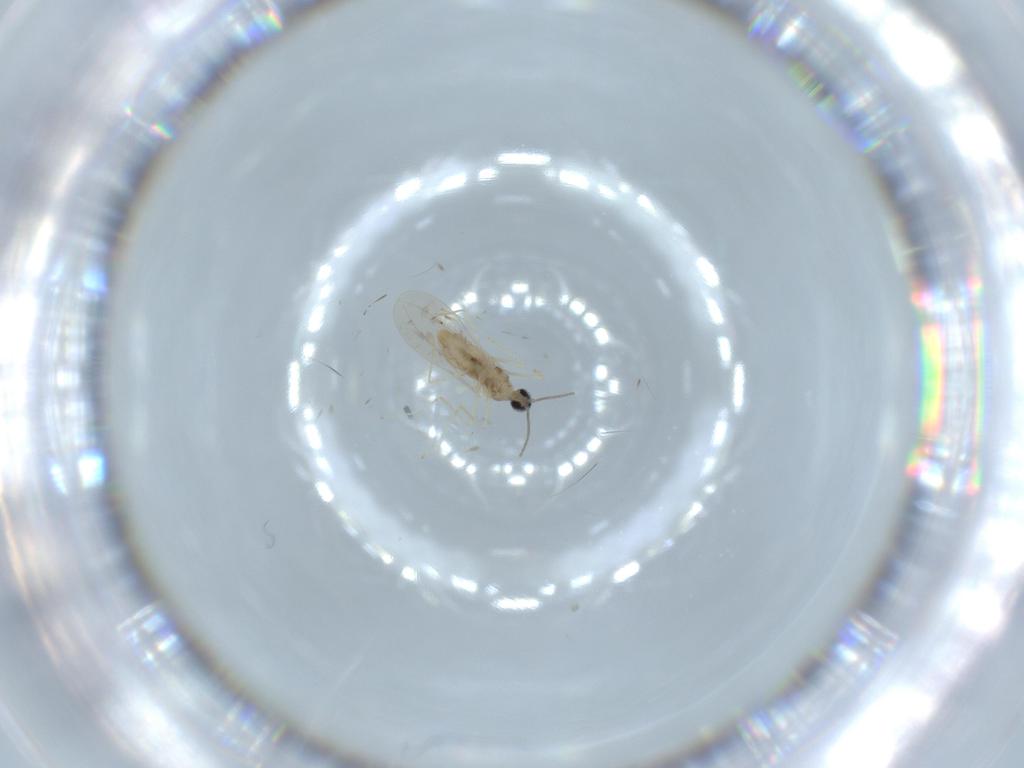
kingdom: Animalia
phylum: Arthropoda
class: Insecta
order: Diptera
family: Cecidomyiidae
